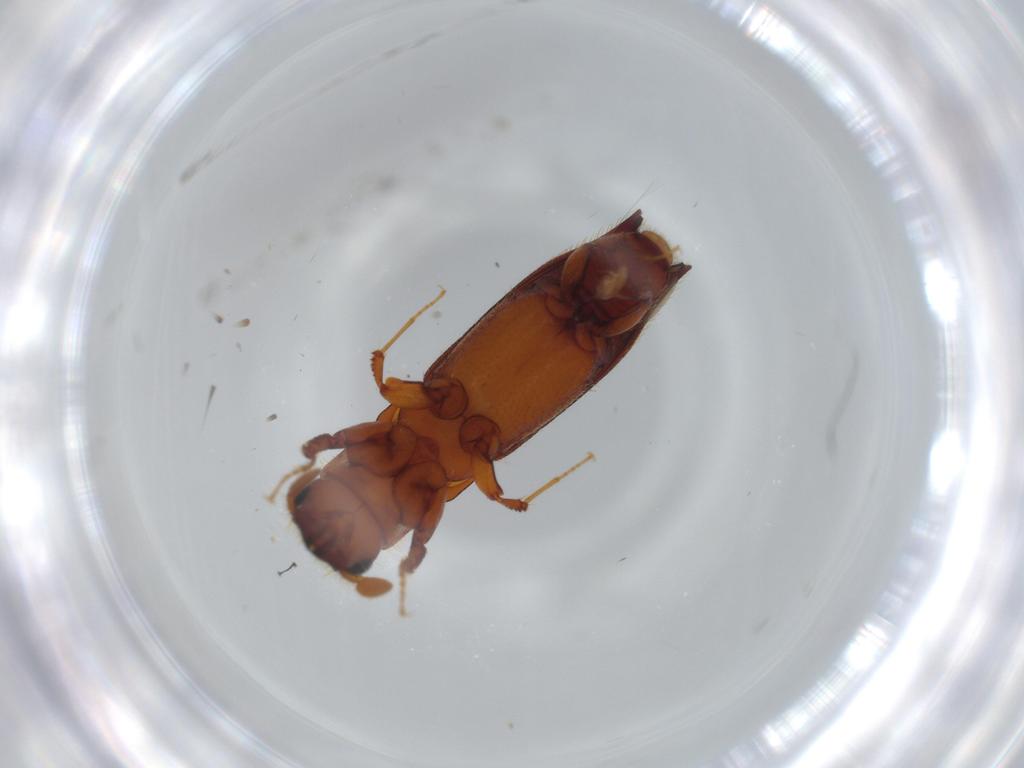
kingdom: Animalia
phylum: Arthropoda
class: Insecta
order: Coleoptera
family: Curculionidae
